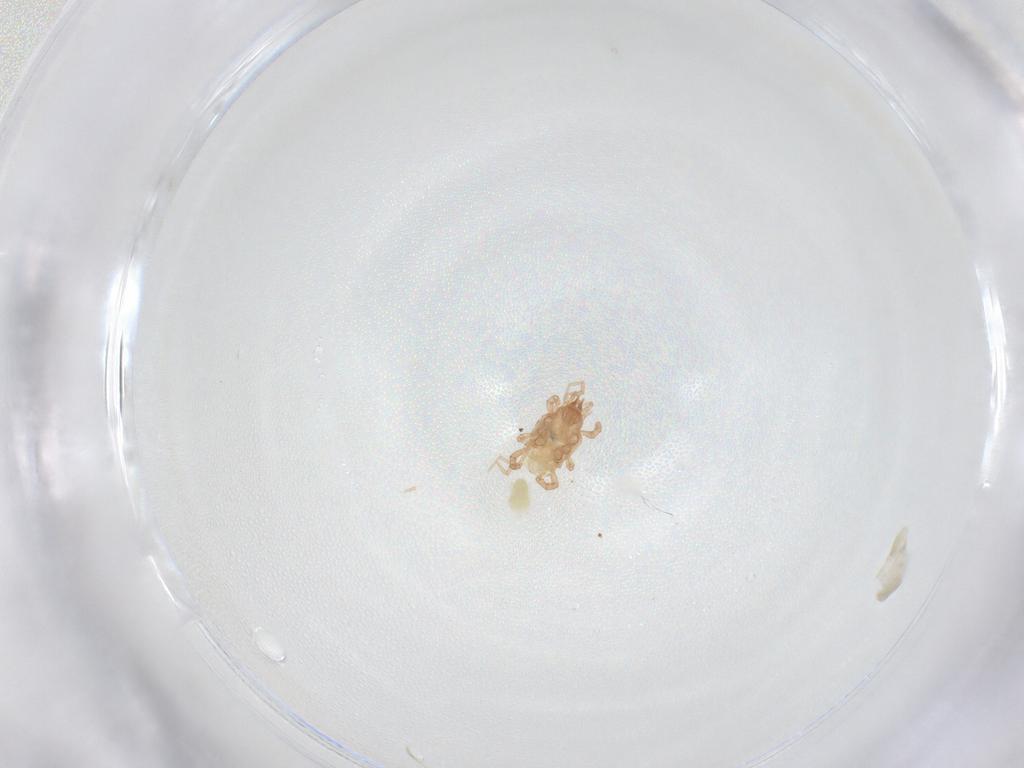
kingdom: Animalia
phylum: Arthropoda
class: Arachnida
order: Trombidiformes
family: Eupodidae
